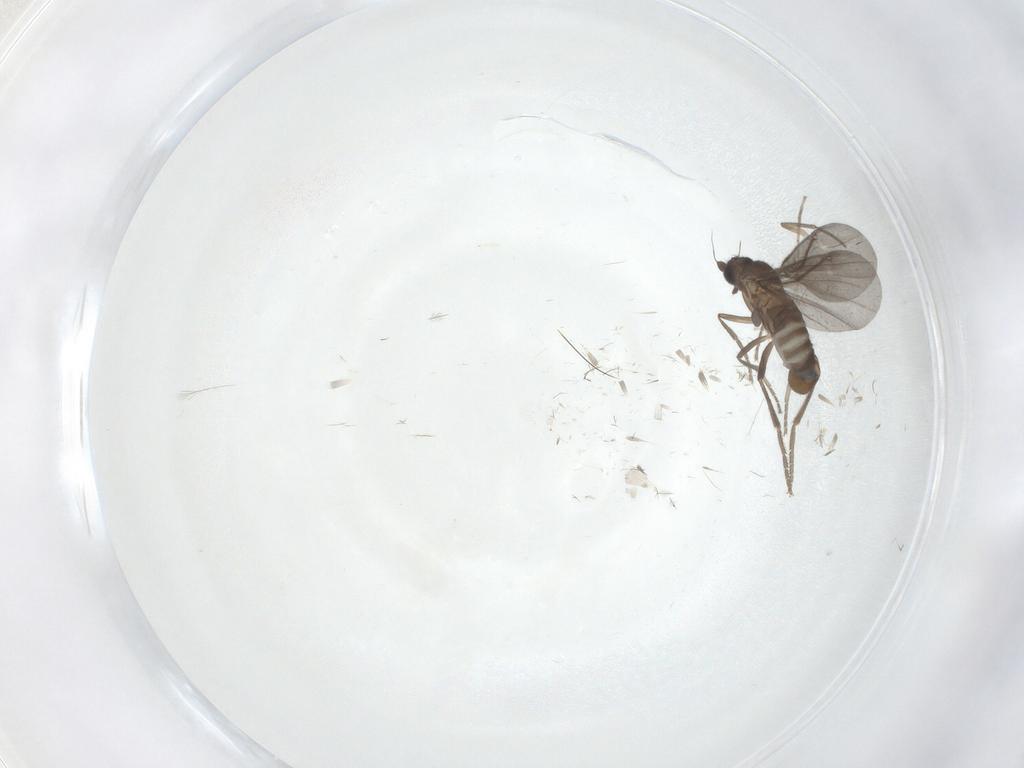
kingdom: Animalia
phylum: Arthropoda
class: Insecta
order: Diptera
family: Phoridae
